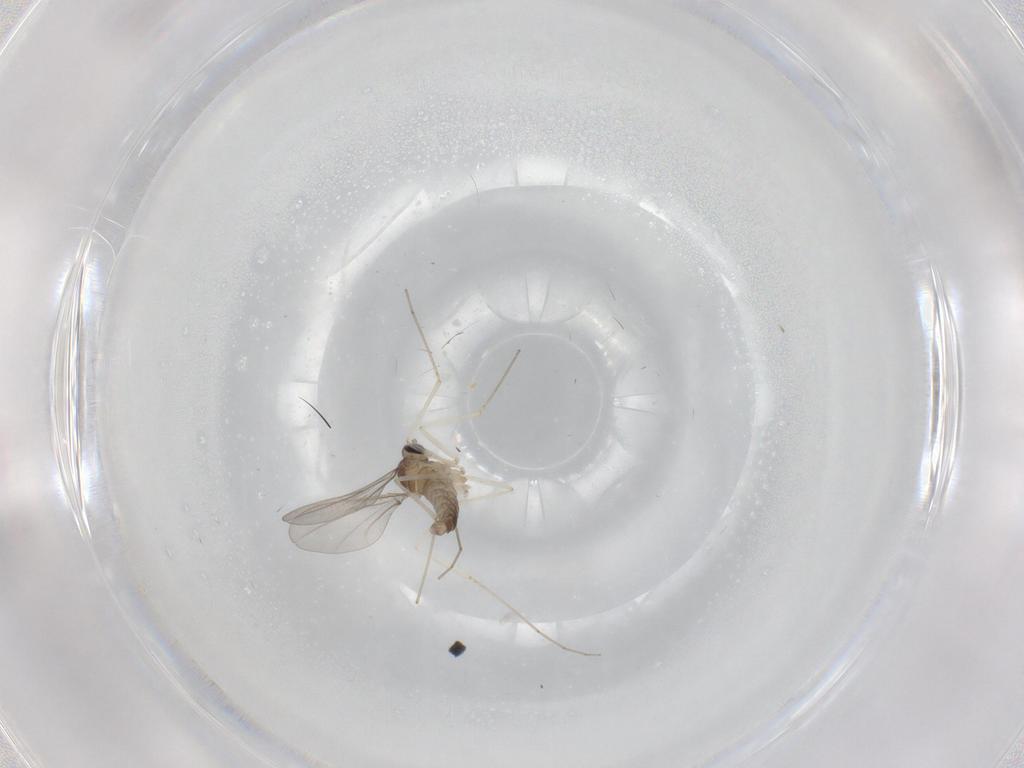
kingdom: Animalia
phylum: Arthropoda
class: Insecta
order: Diptera
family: Cecidomyiidae
